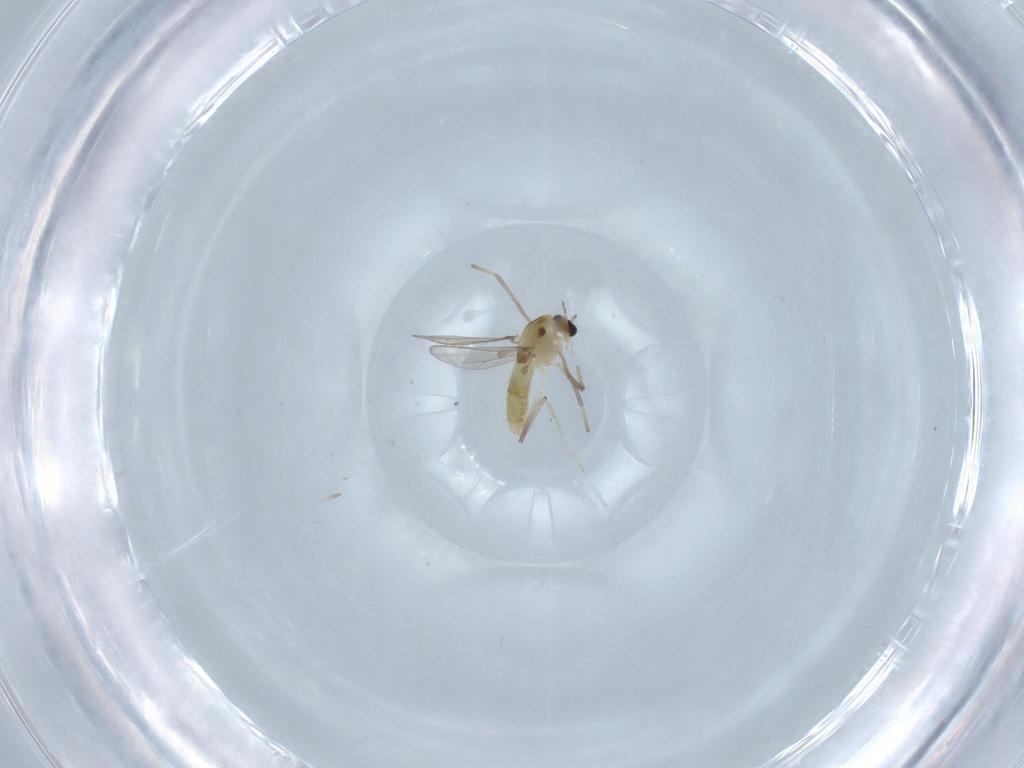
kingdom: Animalia
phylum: Arthropoda
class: Insecta
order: Diptera
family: Chironomidae
